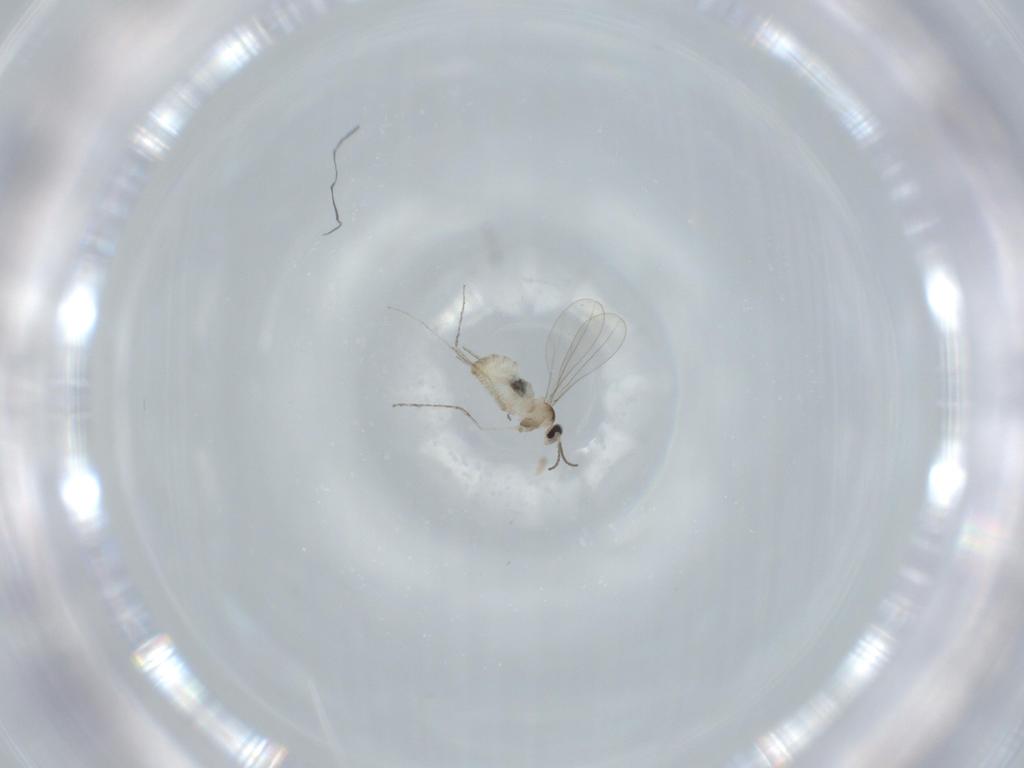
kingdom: Animalia
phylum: Arthropoda
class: Insecta
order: Diptera
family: Cecidomyiidae
